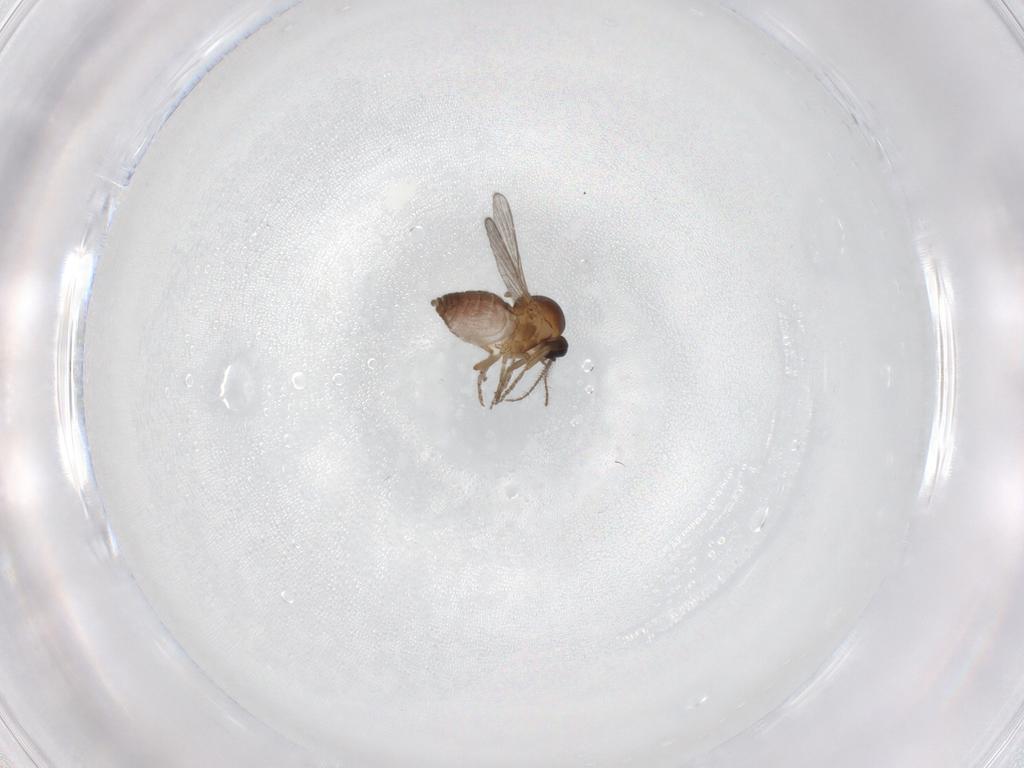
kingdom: Animalia
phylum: Arthropoda
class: Insecta
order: Diptera
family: Ceratopogonidae
